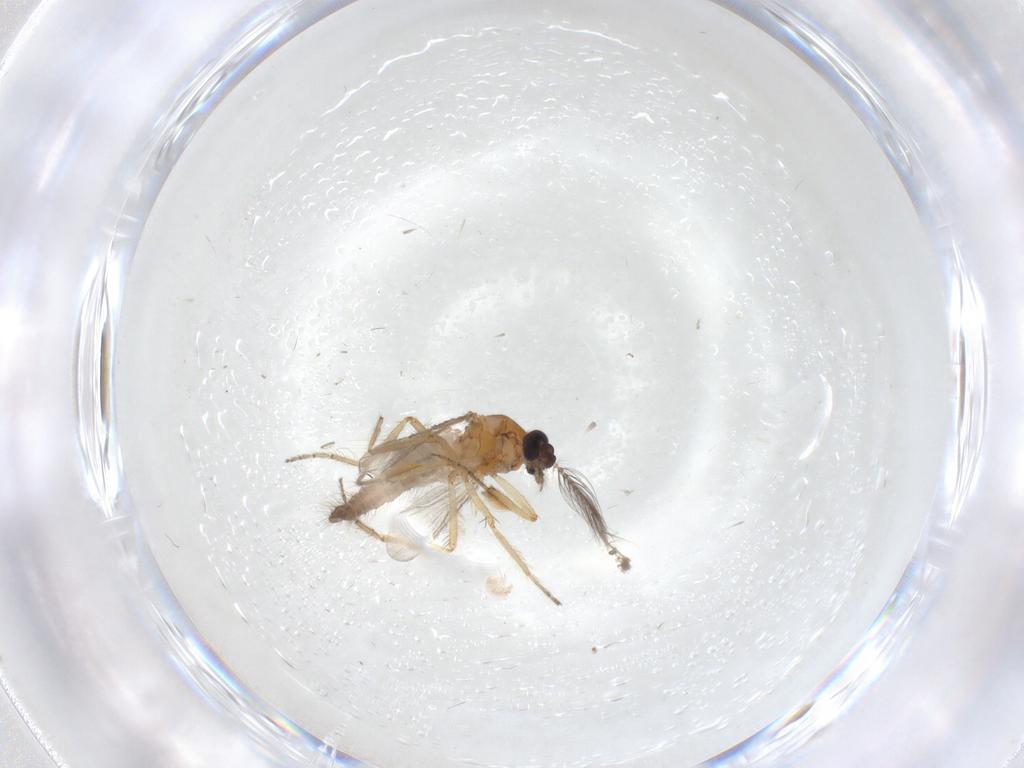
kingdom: Animalia
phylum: Arthropoda
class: Insecta
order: Diptera
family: Ceratopogonidae
